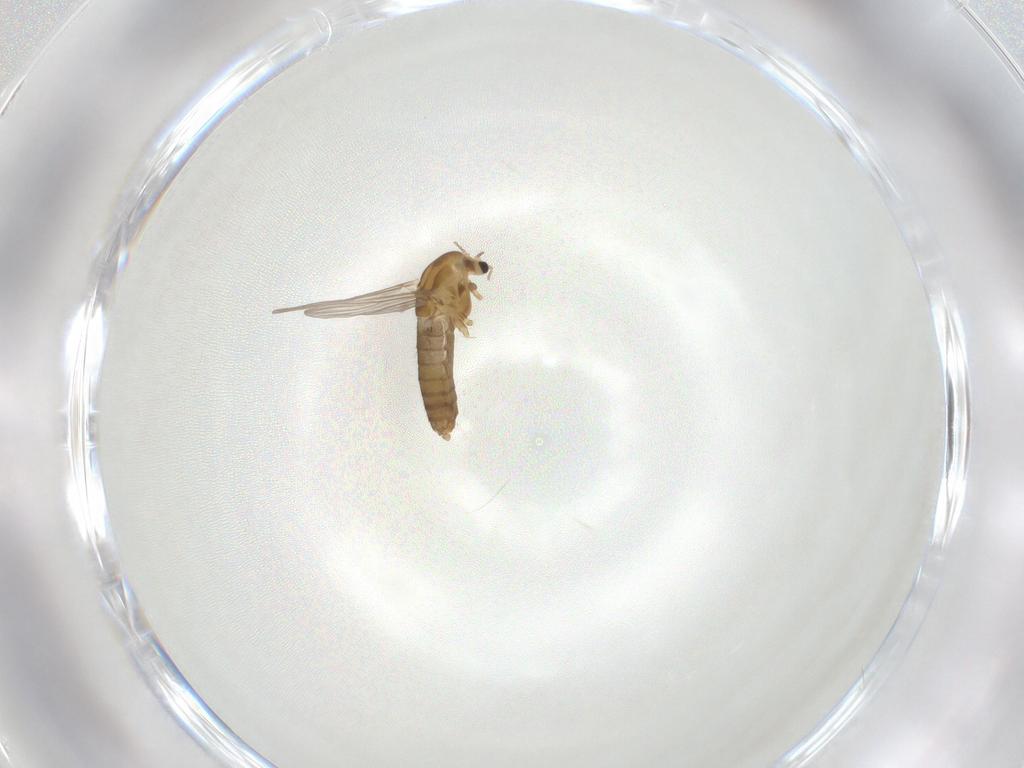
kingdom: Animalia
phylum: Arthropoda
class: Insecta
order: Diptera
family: Chironomidae
